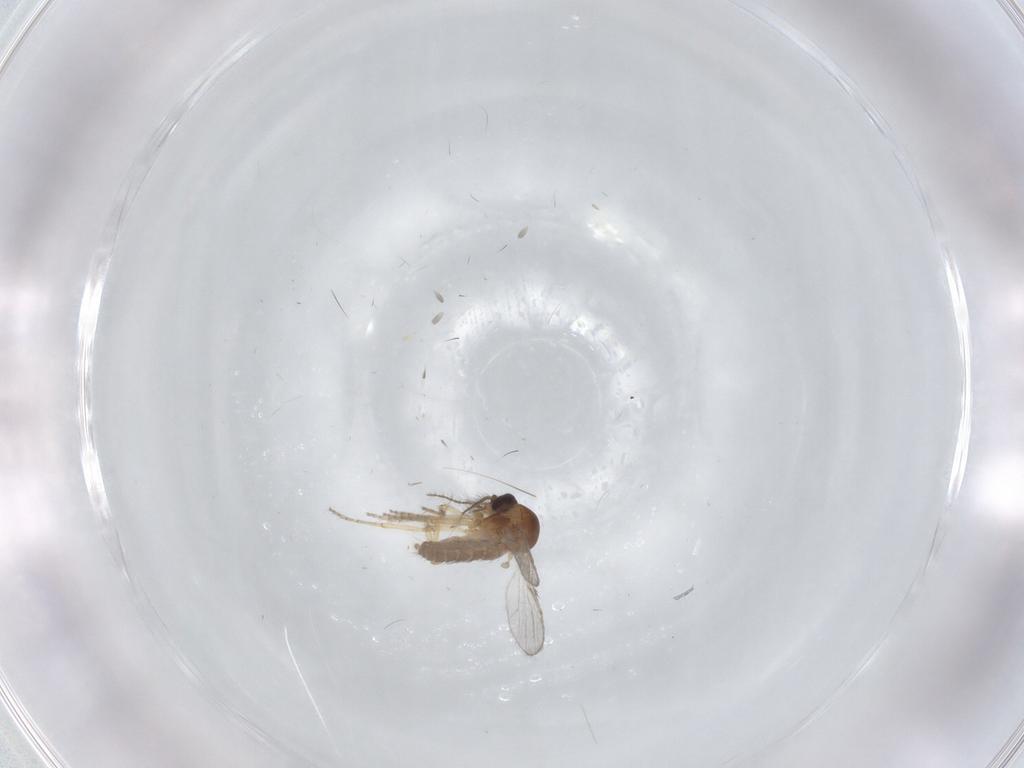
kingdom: Animalia
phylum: Arthropoda
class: Insecta
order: Diptera
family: Ceratopogonidae
